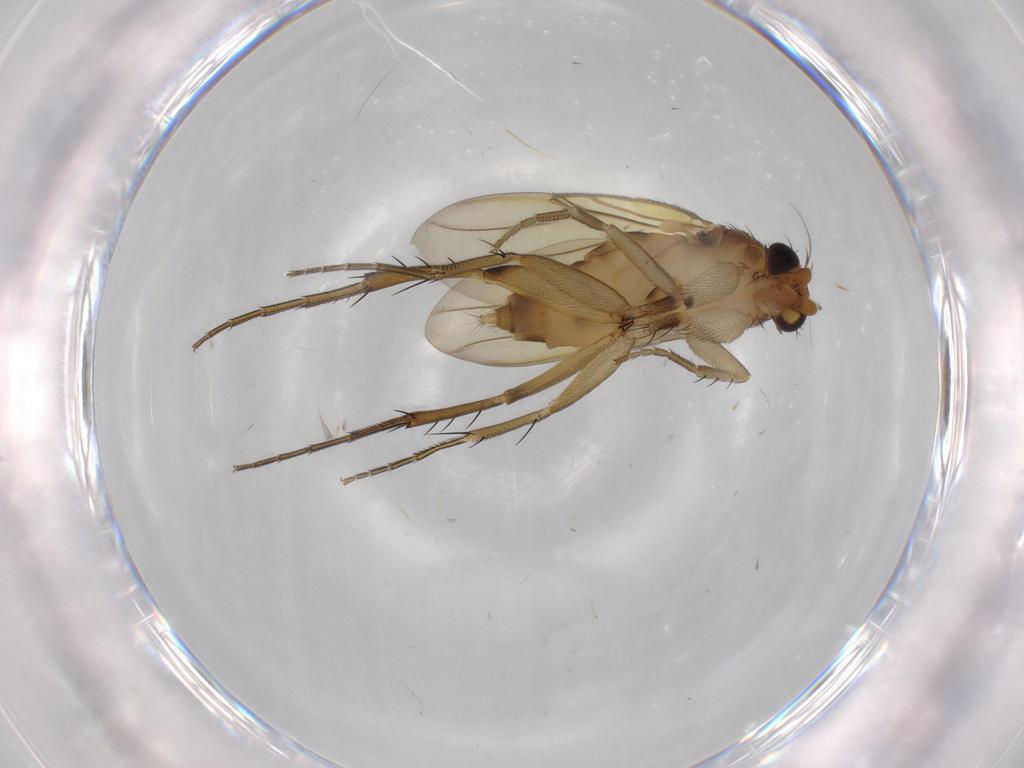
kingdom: Animalia
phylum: Arthropoda
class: Insecta
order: Diptera
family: Phoridae
